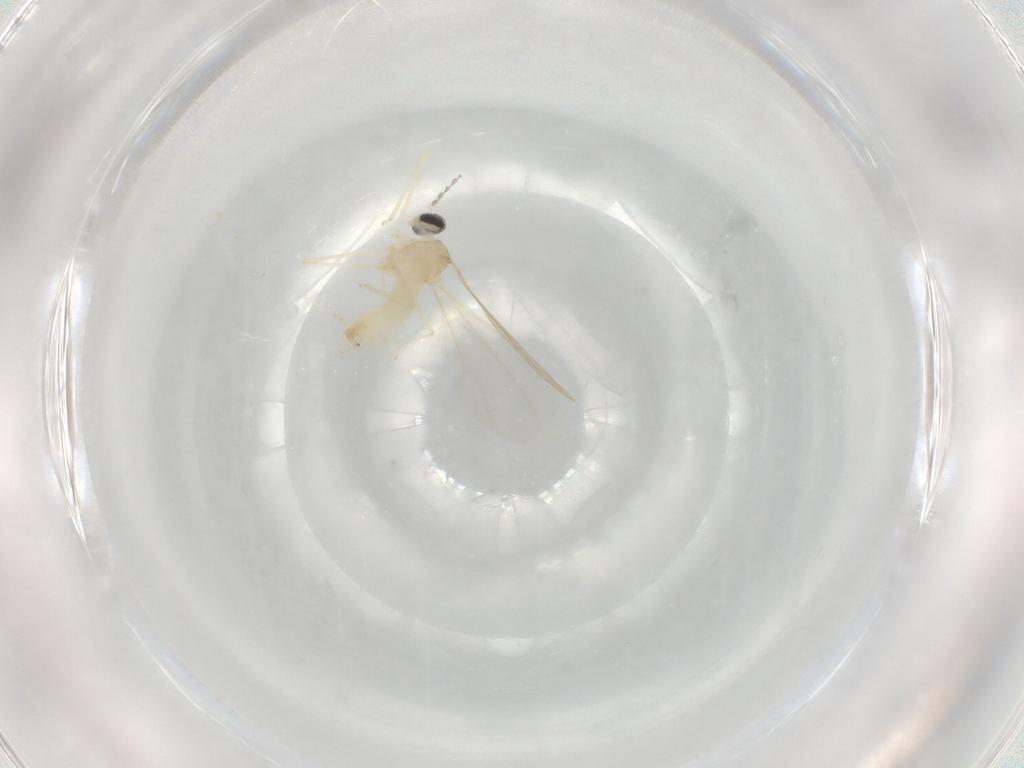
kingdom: Animalia
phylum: Arthropoda
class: Insecta
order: Diptera
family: Cecidomyiidae
